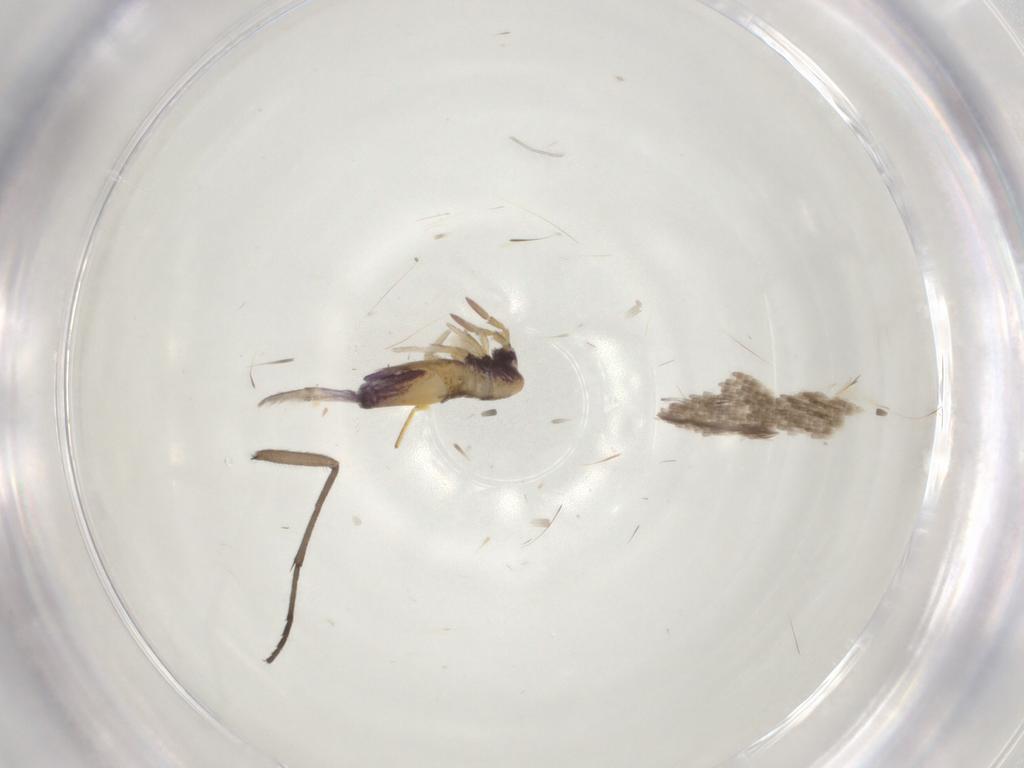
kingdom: Animalia
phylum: Arthropoda
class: Collembola
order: Entomobryomorpha
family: Entomobryidae
